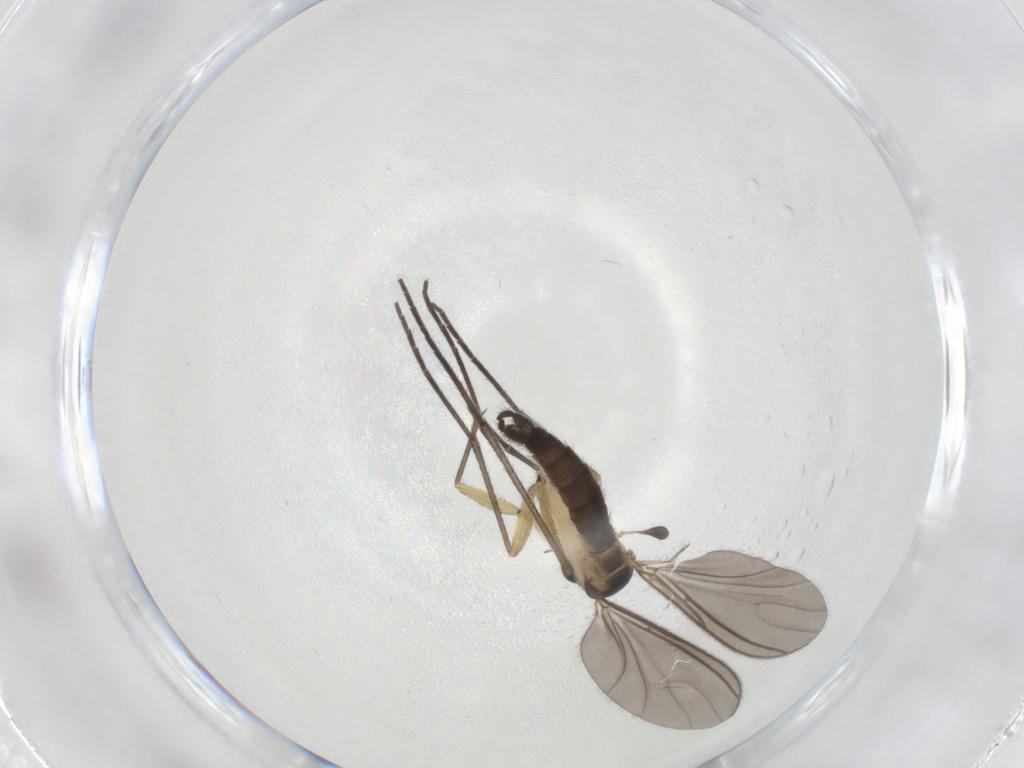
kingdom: Animalia
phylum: Arthropoda
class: Insecta
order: Diptera
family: Sciaridae
